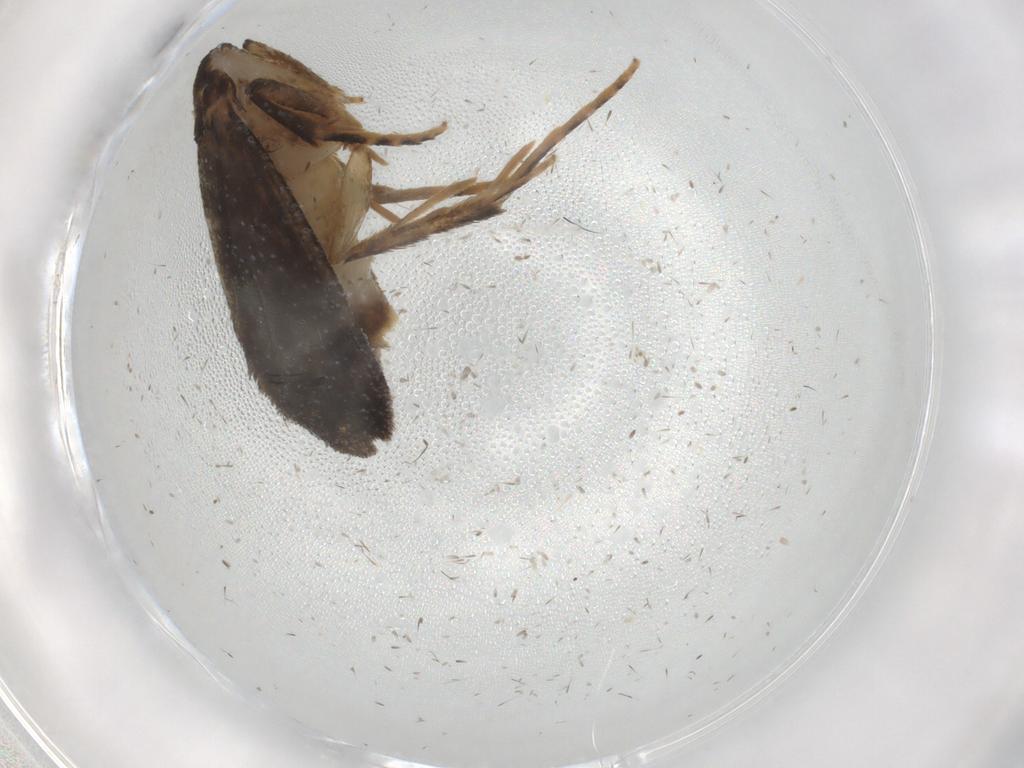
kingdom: Animalia
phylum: Arthropoda
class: Insecta
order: Lepidoptera
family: Tineidae
